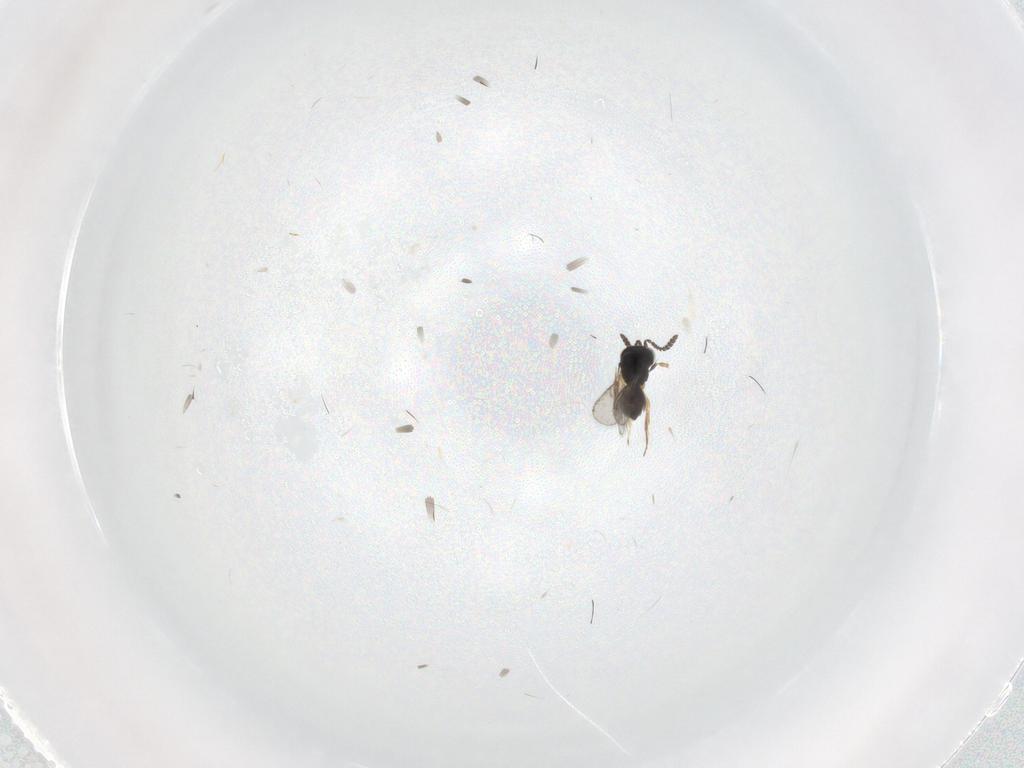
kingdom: Animalia
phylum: Arthropoda
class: Insecta
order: Hymenoptera
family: Scelionidae
